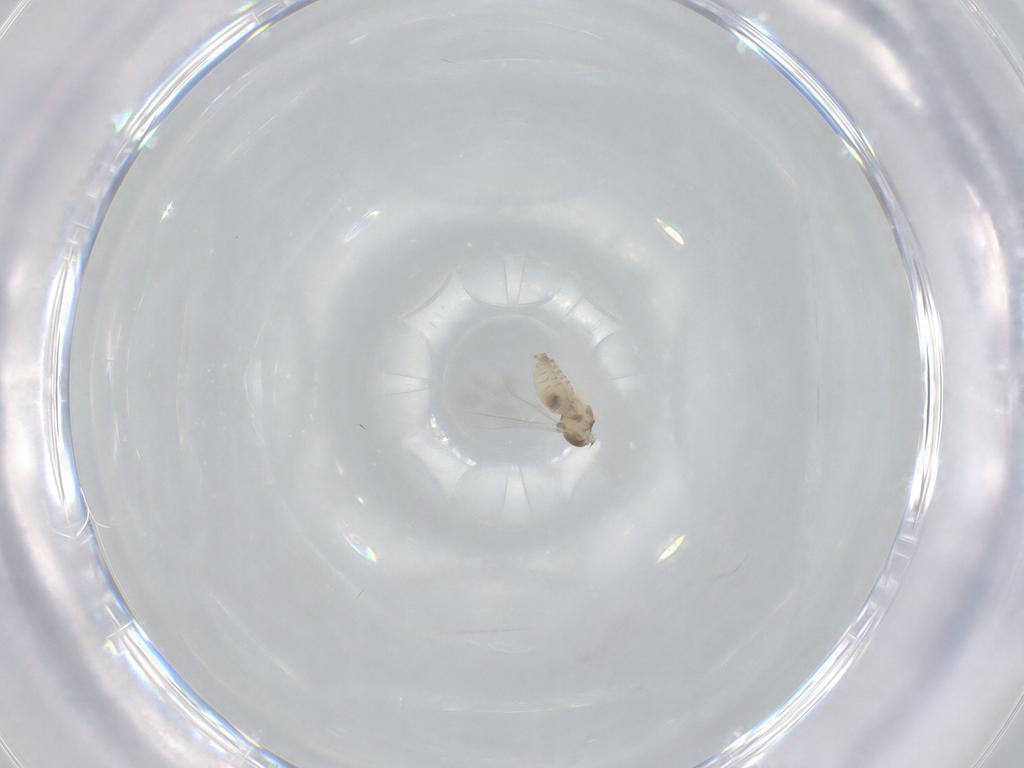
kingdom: Animalia
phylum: Arthropoda
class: Insecta
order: Diptera
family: Cecidomyiidae
